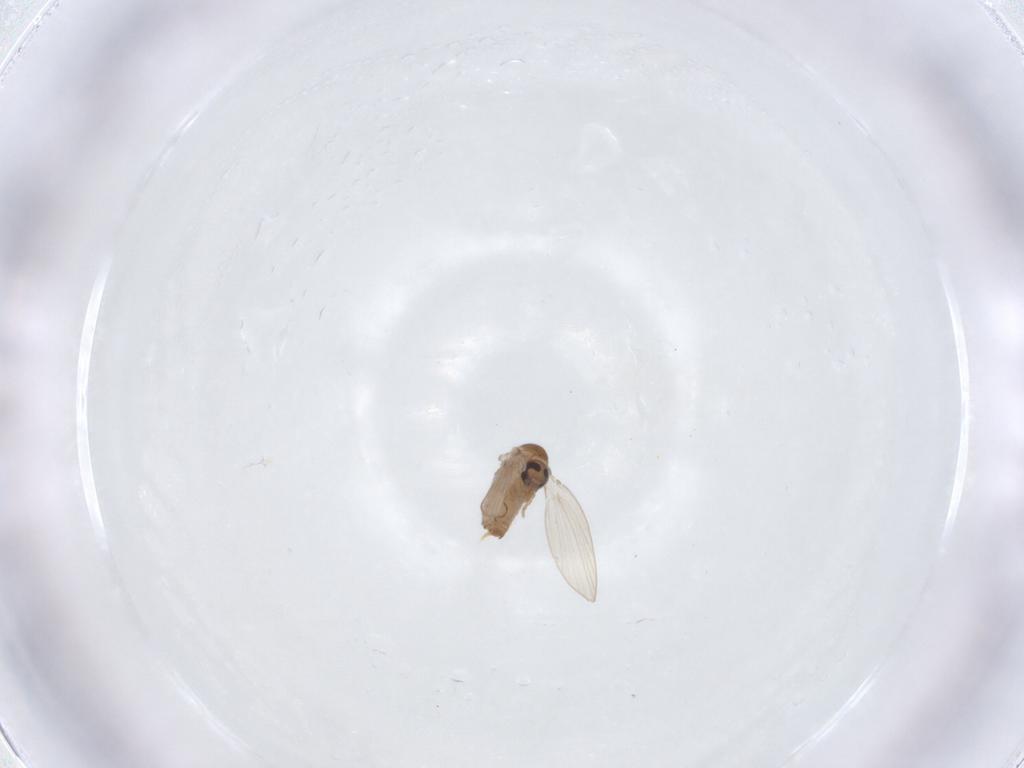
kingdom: Animalia
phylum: Arthropoda
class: Insecta
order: Diptera
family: Psychodidae
